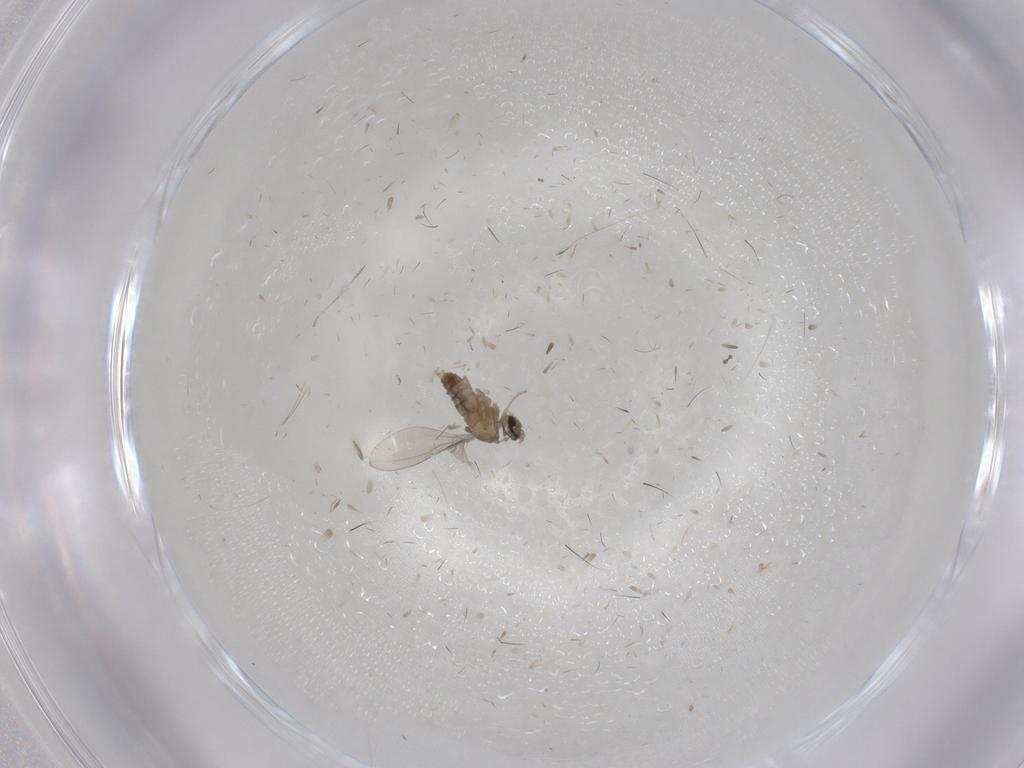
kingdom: Animalia
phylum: Arthropoda
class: Insecta
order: Diptera
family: Cecidomyiidae
